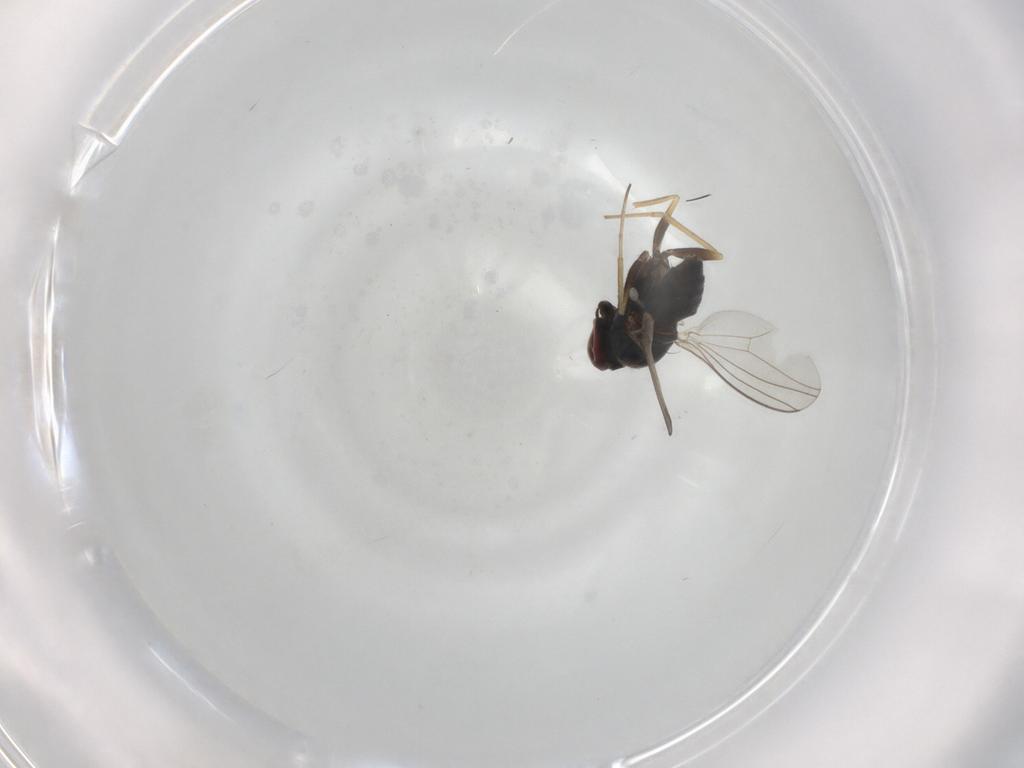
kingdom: Animalia
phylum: Arthropoda
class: Insecta
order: Diptera
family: Dolichopodidae
